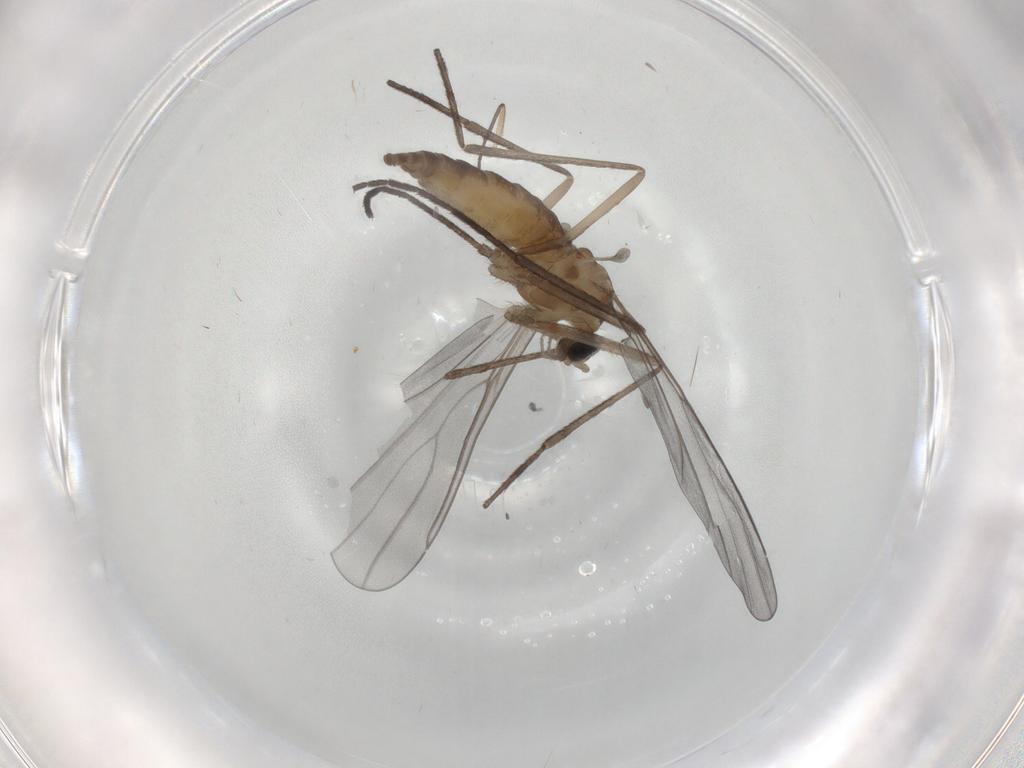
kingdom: Animalia
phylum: Arthropoda
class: Insecta
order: Diptera
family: Cecidomyiidae
